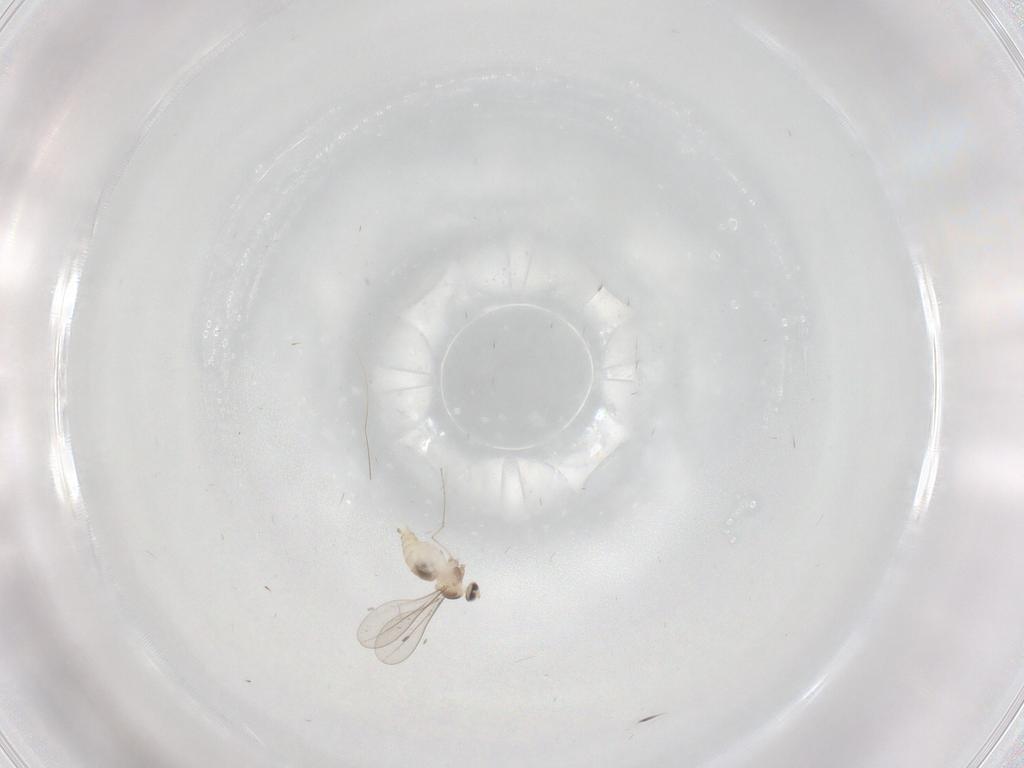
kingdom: Animalia
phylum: Arthropoda
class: Insecta
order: Diptera
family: Cecidomyiidae
